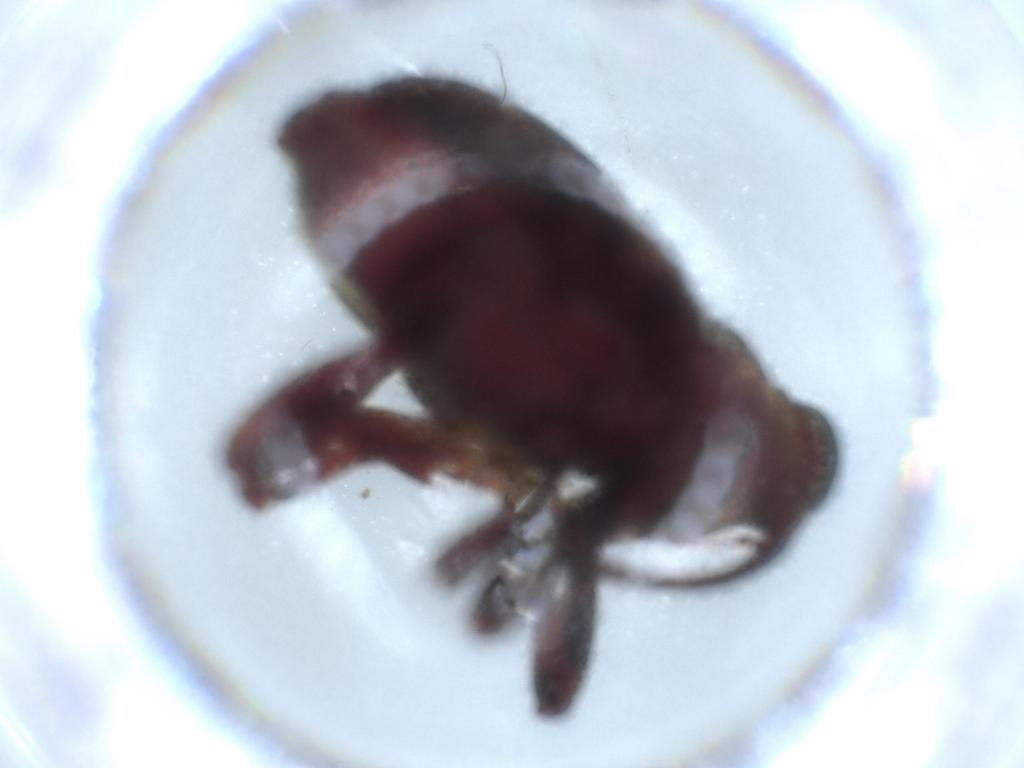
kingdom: Animalia
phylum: Arthropoda
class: Insecta
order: Coleoptera
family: Curculionidae
